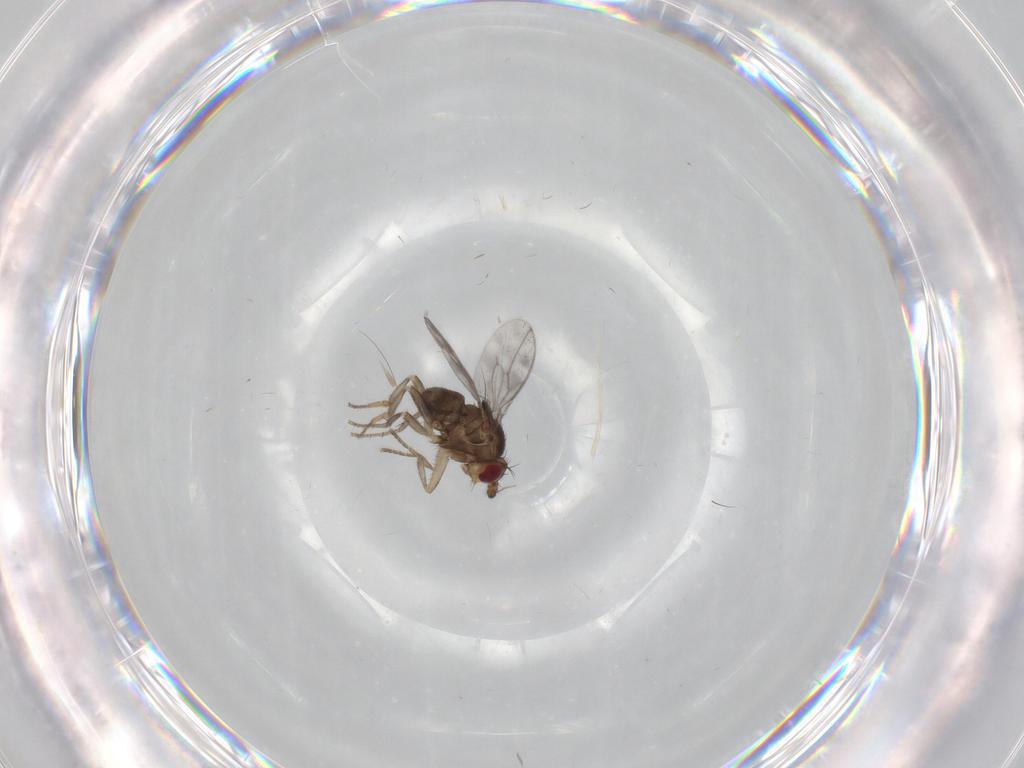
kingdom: Animalia
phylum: Arthropoda
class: Insecta
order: Diptera
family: Sphaeroceridae
